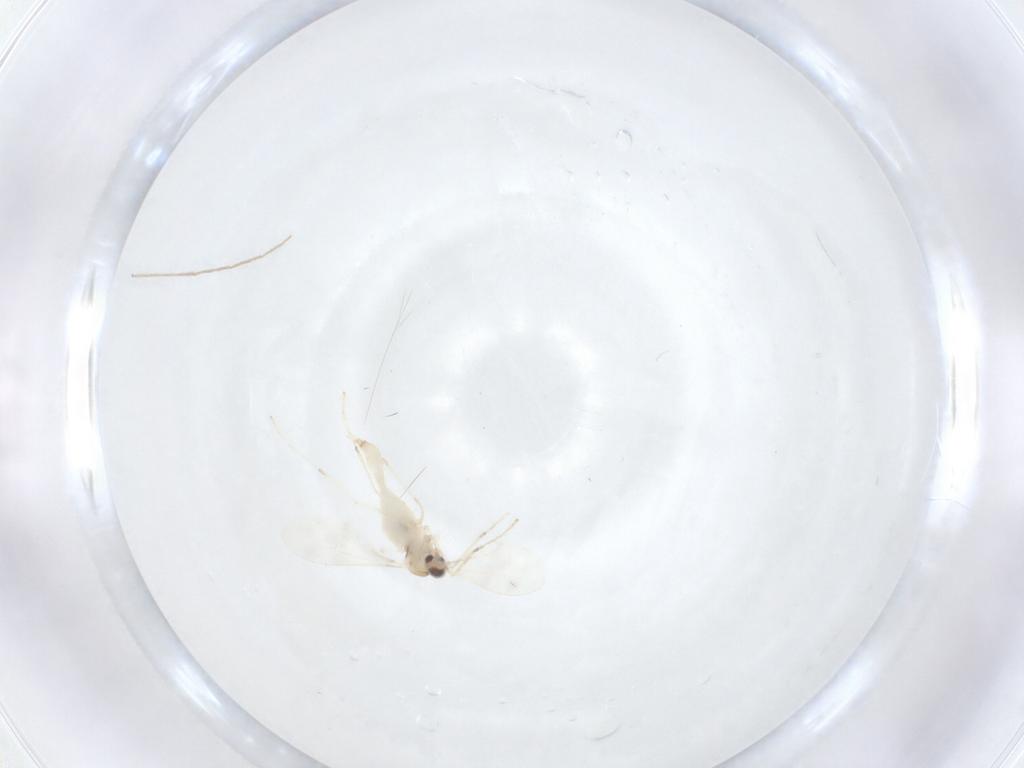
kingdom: Animalia
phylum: Arthropoda
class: Insecta
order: Diptera
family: Cecidomyiidae
